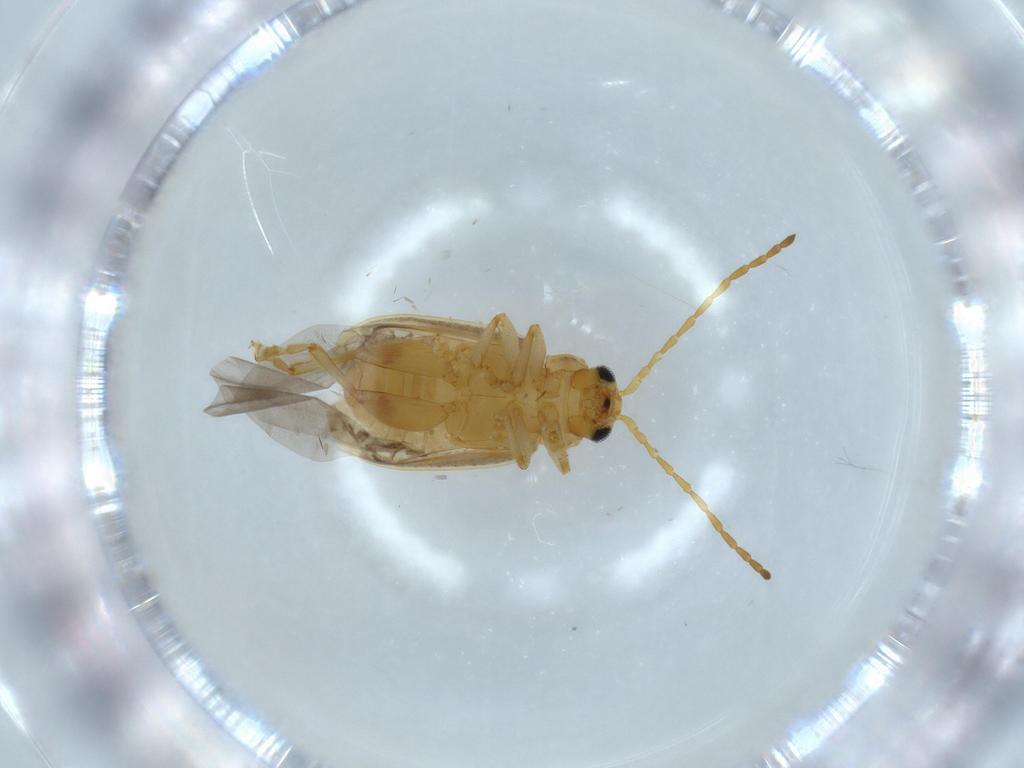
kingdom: Animalia
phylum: Arthropoda
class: Insecta
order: Coleoptera
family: Chrysomelidae
